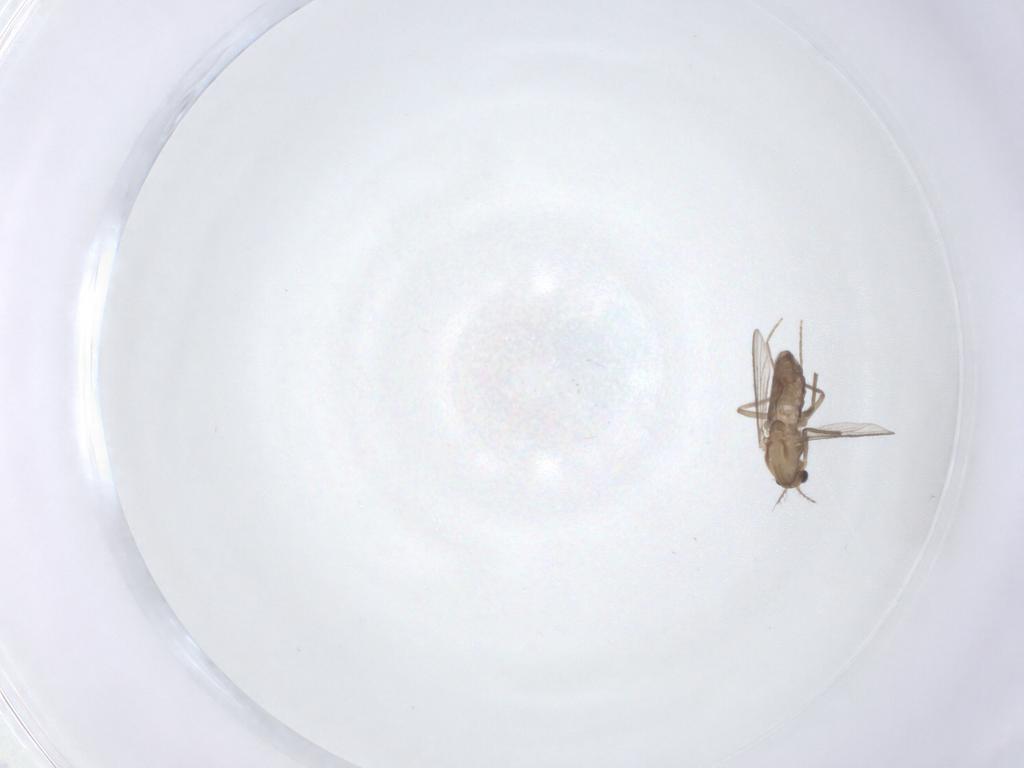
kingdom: Animalia
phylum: Arthropoda
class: Insecta
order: Diptera
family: Chironomidae
